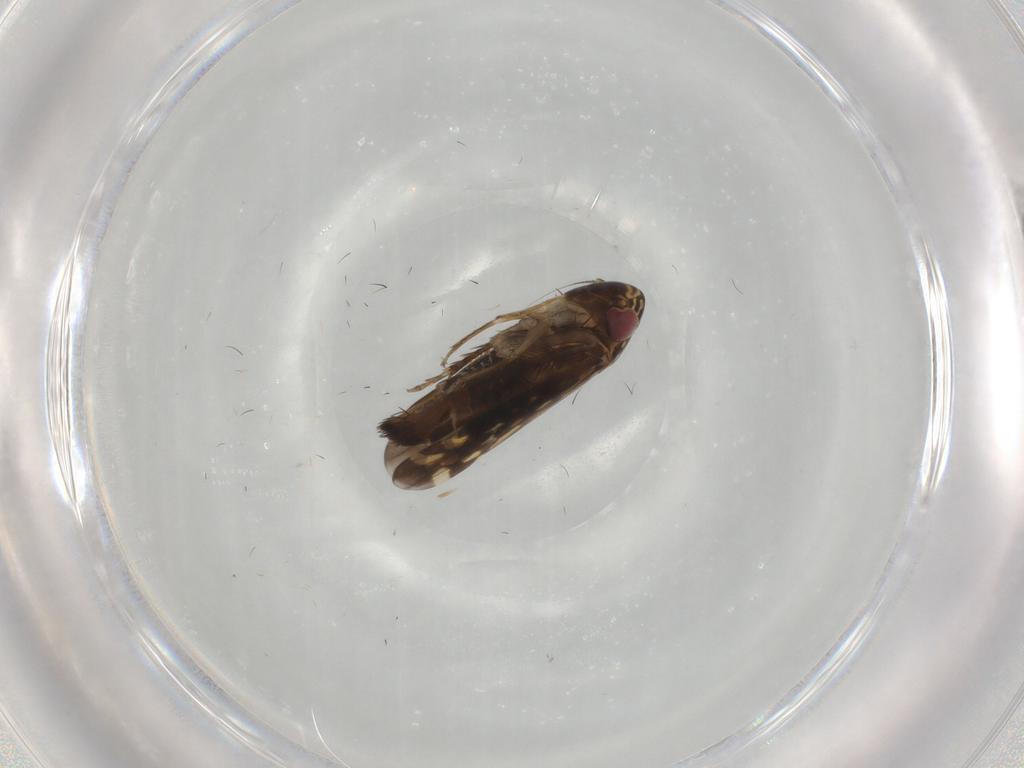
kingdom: Animalia
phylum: Arthropoda
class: Insecta
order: Hemiptera
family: Cicadellidae
